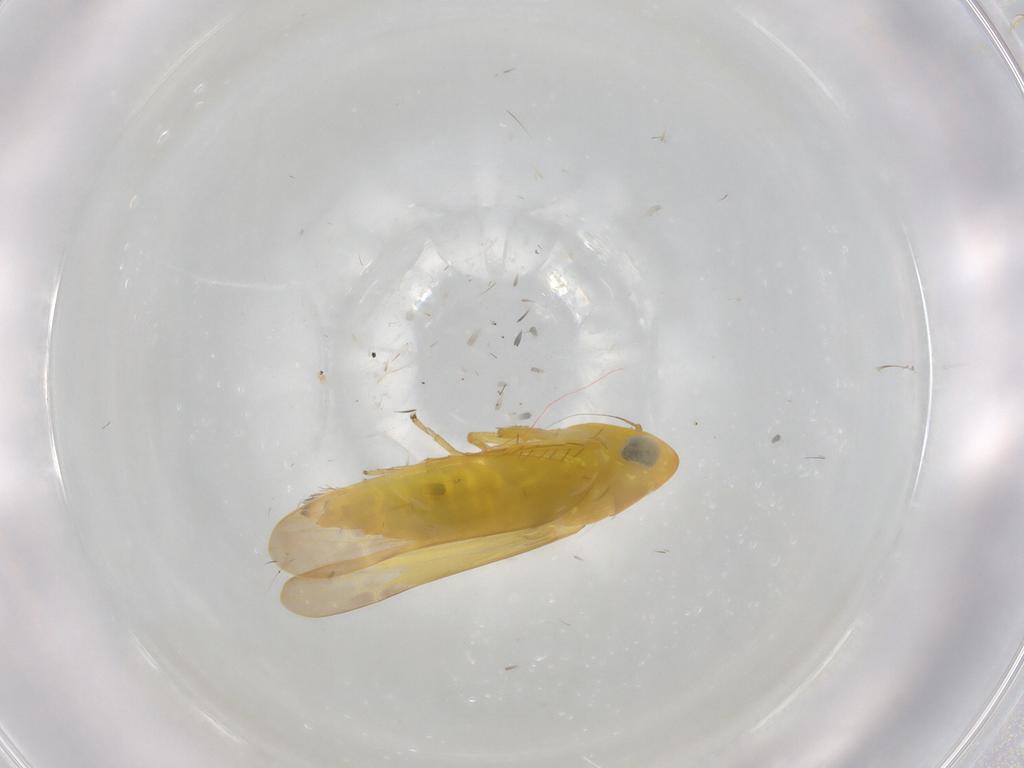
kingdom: Animalia
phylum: Arthropoda
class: Insecta
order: Hemiptera
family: Cicadellidae
